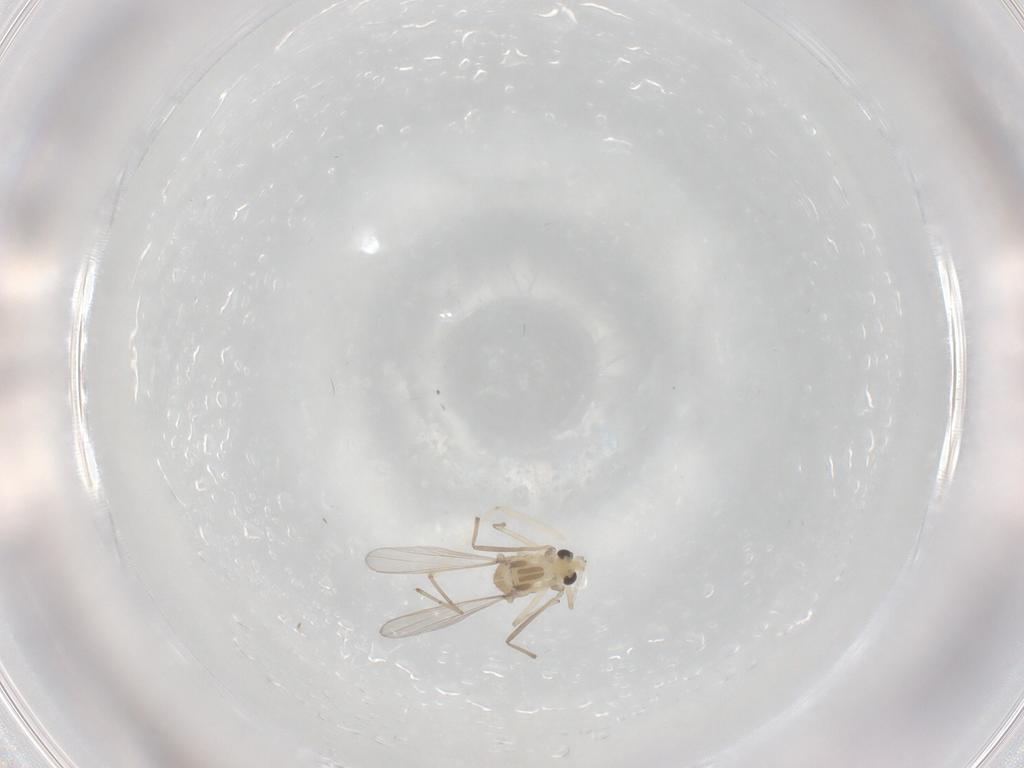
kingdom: Animalia
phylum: Arthropoda
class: Insecta
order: Diptera
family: Chironomidae
